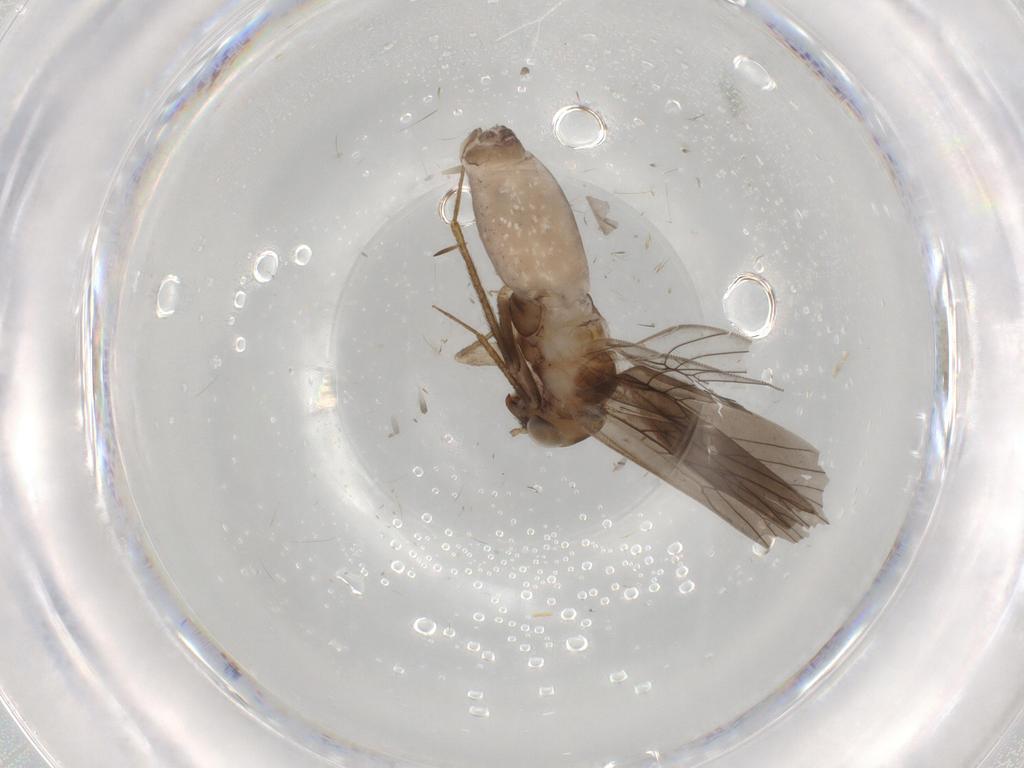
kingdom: Animalia
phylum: Arthropoda
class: Insecta
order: Psocodea
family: Lepidopsocidae
